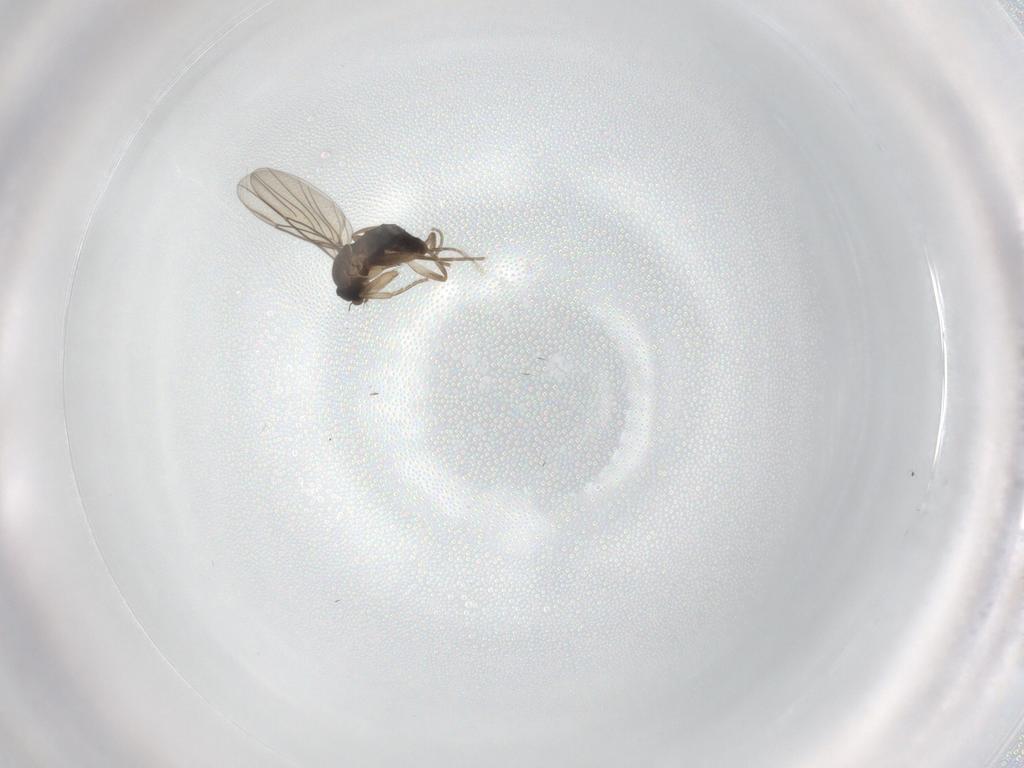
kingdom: Animalia
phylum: Arthropoda
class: Insecta
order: Diptera
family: Phoridae
